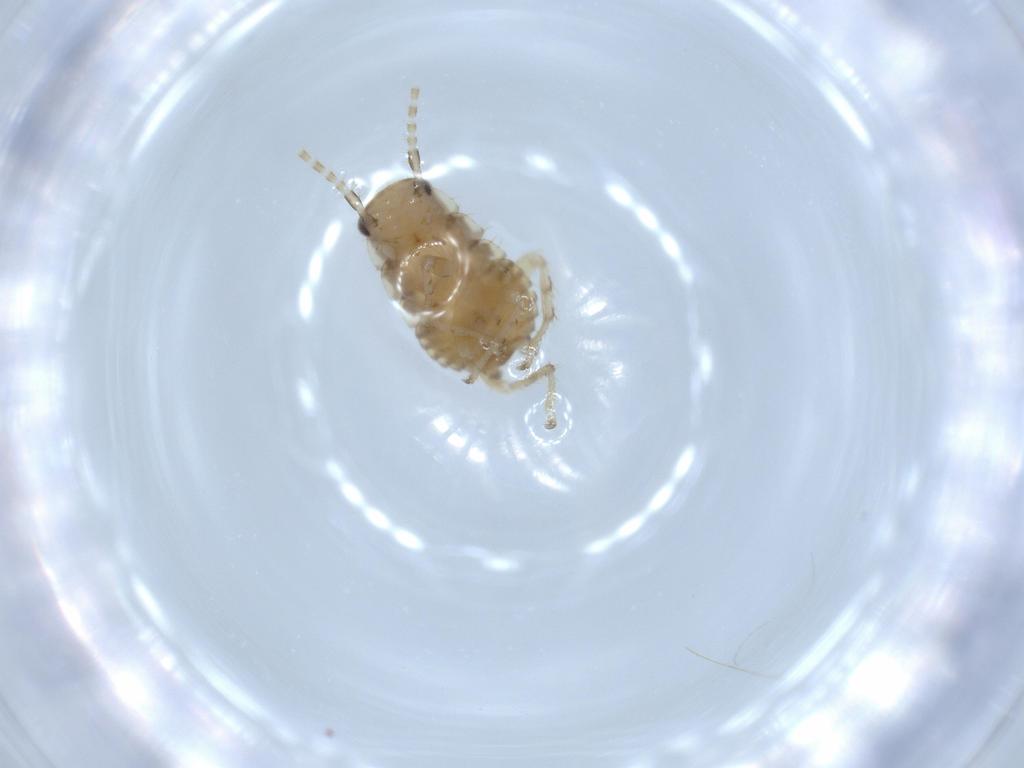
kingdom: Animalia
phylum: Arthropoda
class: Insecta
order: Blattodea
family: Ectobiidae
